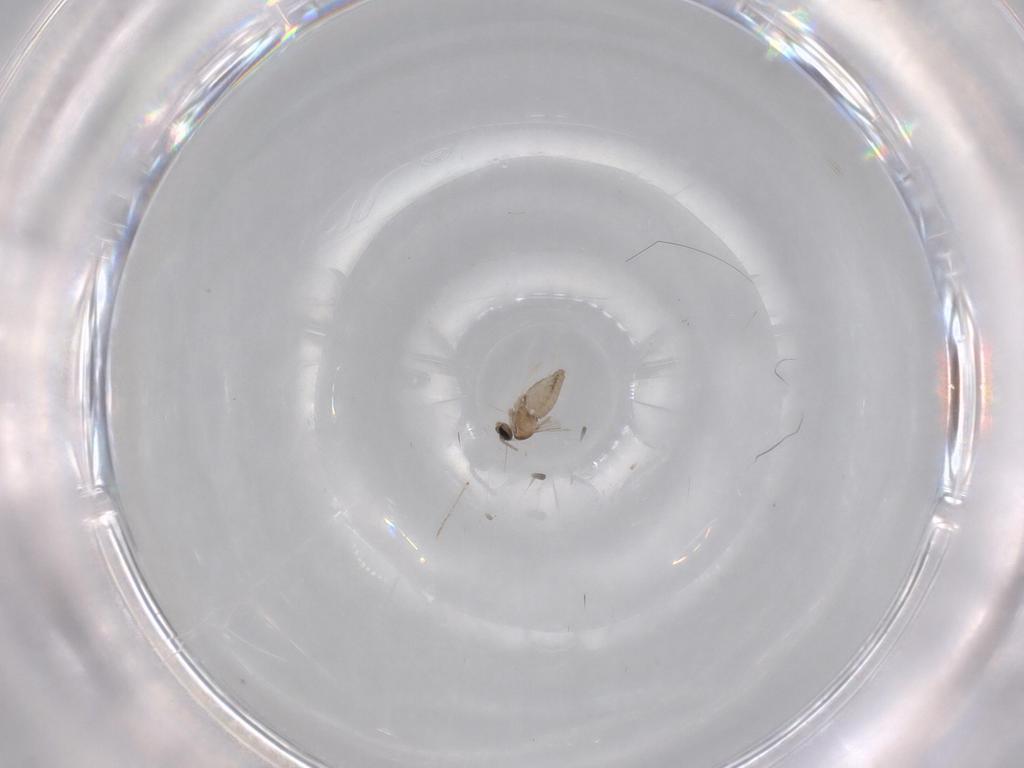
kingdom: Animalia
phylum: Arthropoda
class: Insecta
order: Diptera
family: Cecidomyiidae
